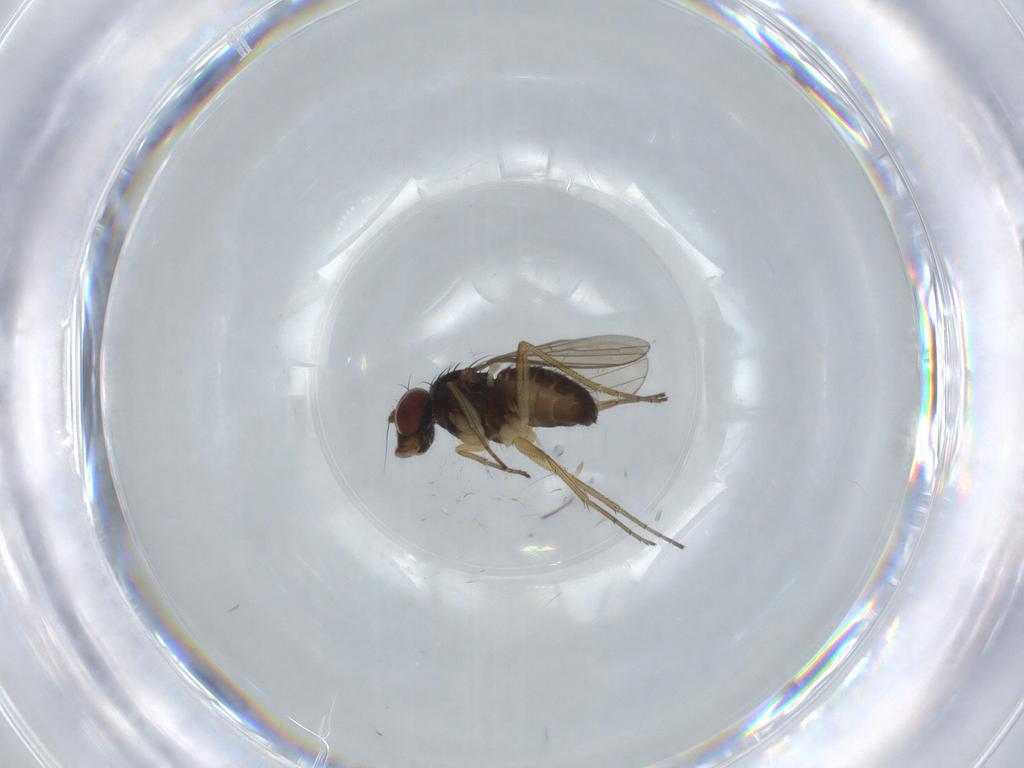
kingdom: Animalia
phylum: Arthropoda
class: Insecta
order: Diptera
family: Dolichopodidae
